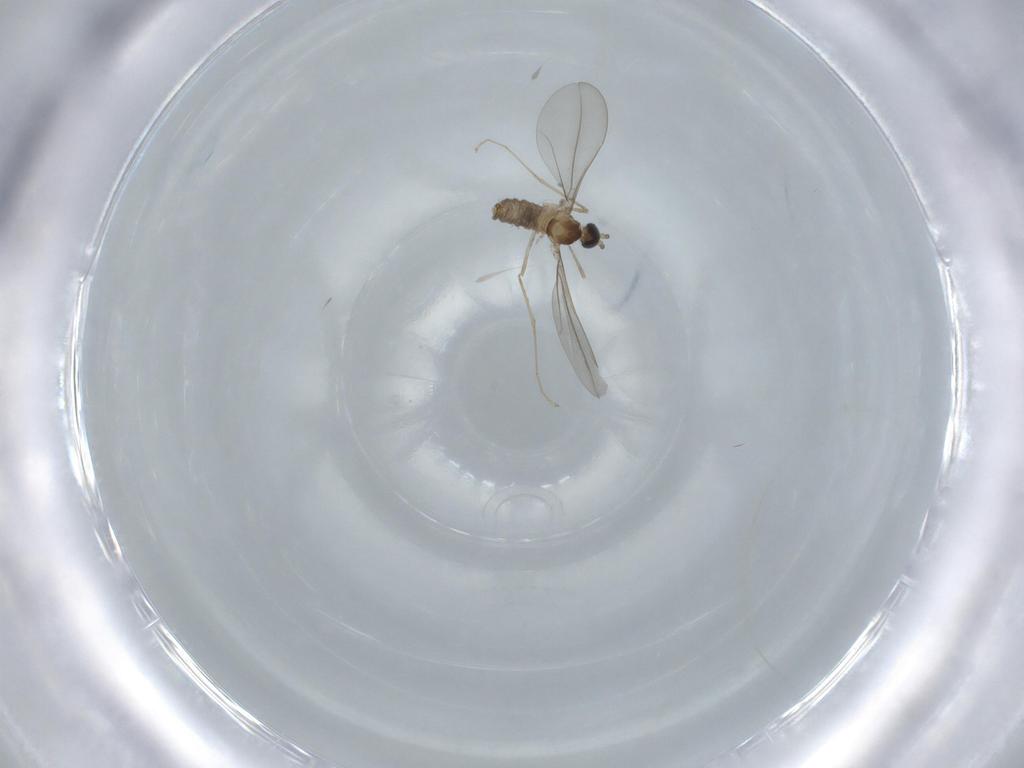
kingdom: Animalia
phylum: Arthropoda
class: Insecta
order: Diptera
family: Cecidomyiidae
